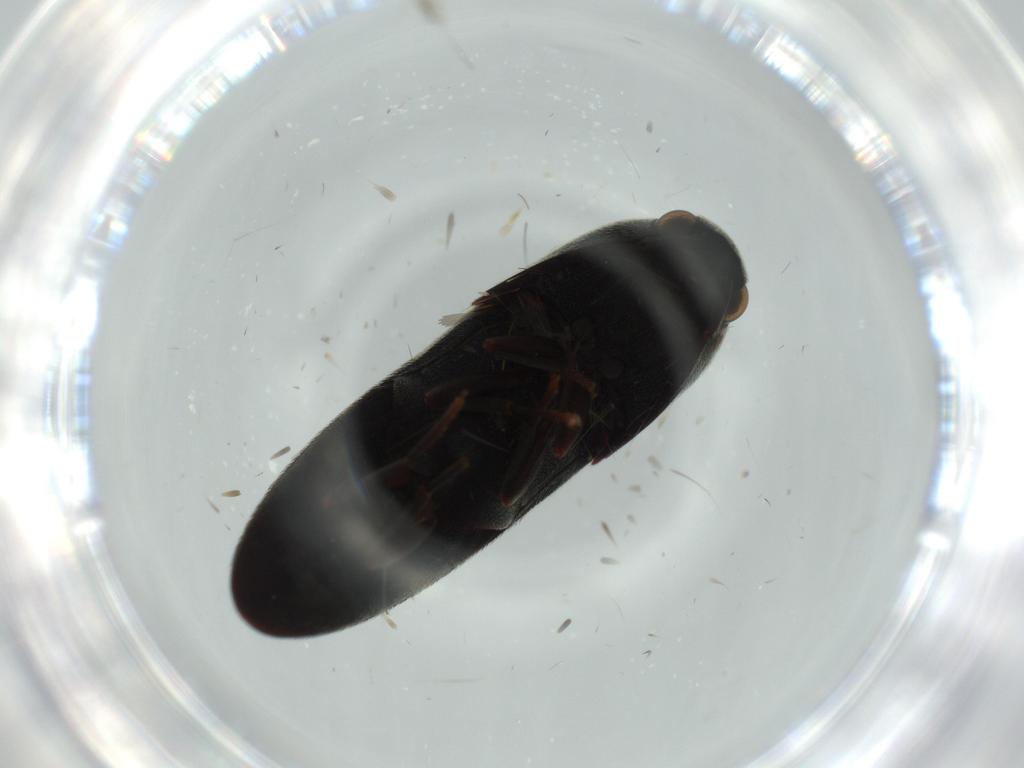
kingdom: Animalia
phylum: Arthropoda
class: Insecta
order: Coleoptera
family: Eucnemidae
